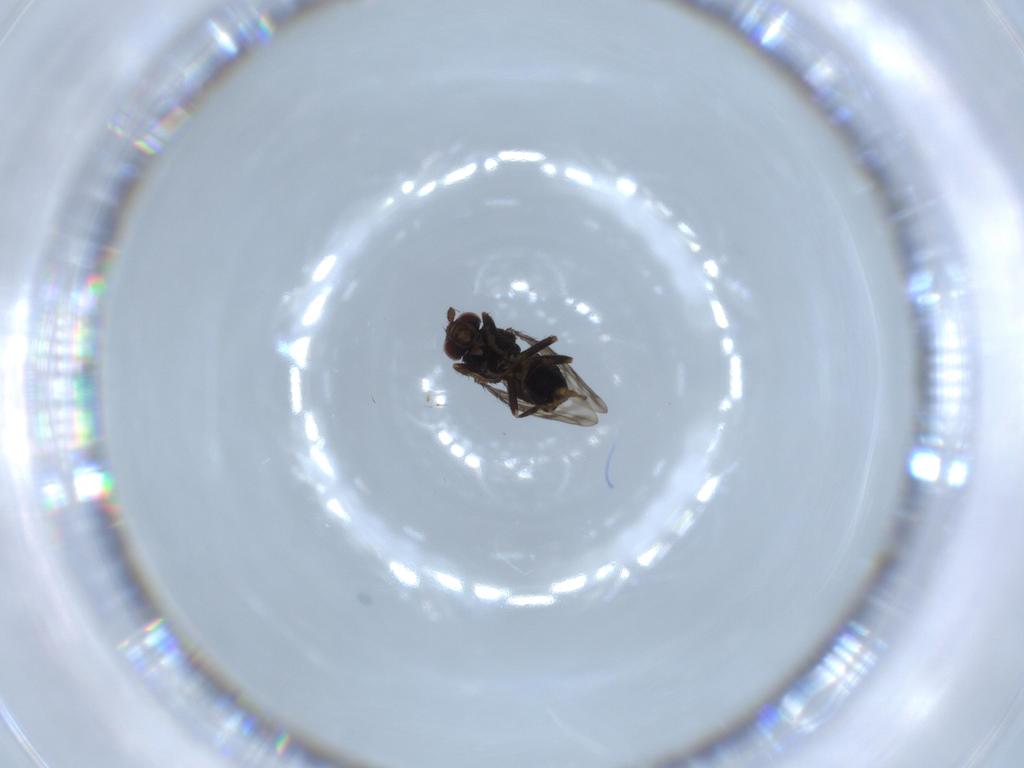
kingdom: Animalia
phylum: Arthropoda
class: Insecta
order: Diptera
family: Sphaeroceridae
